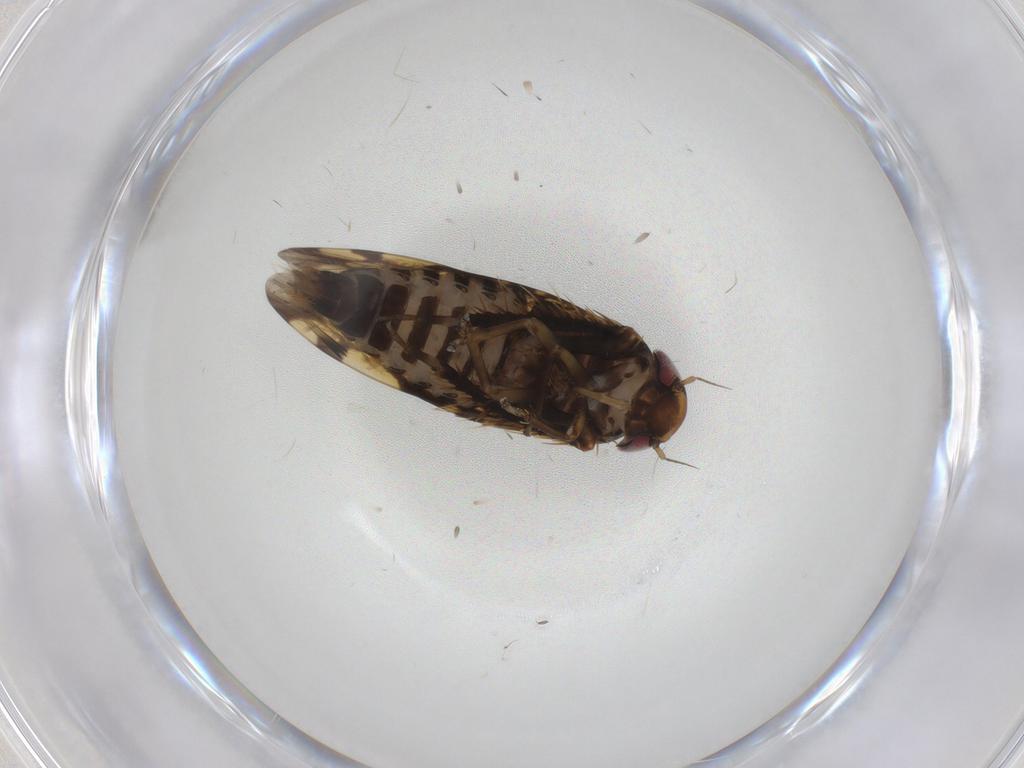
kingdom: Animalia
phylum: Arthropoda
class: Insecta
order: Hemiptera
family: Cicadellidae
